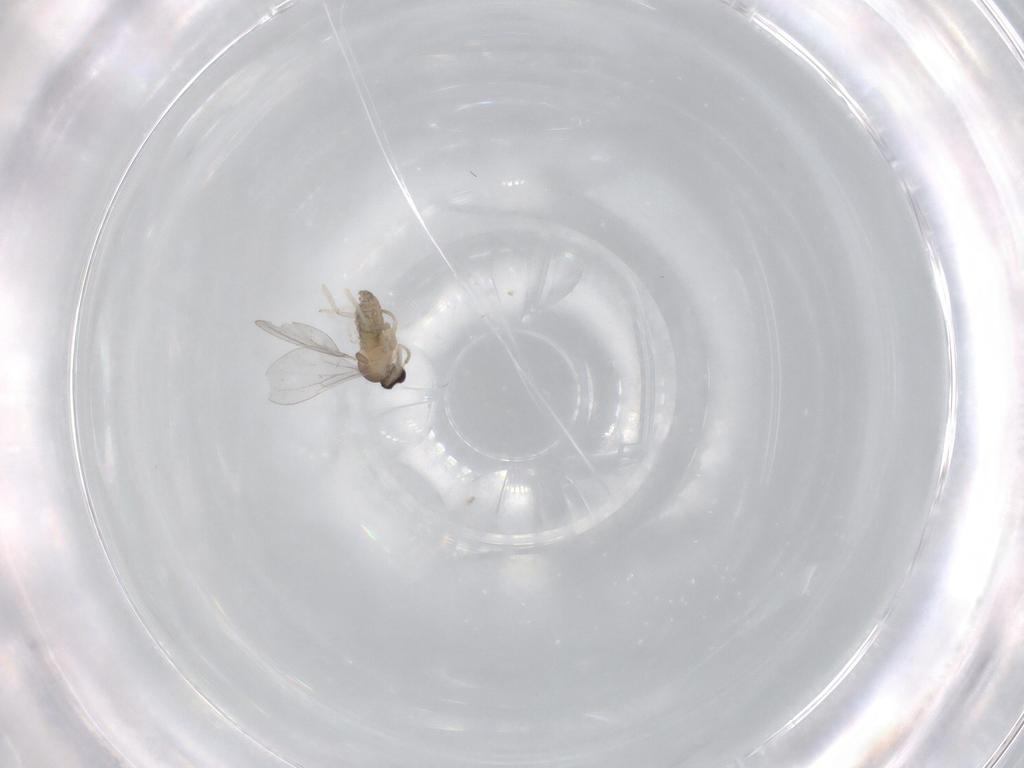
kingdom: Animalia
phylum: Arthropoda
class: Insecta
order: Diptera
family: Cecidomyiidae
